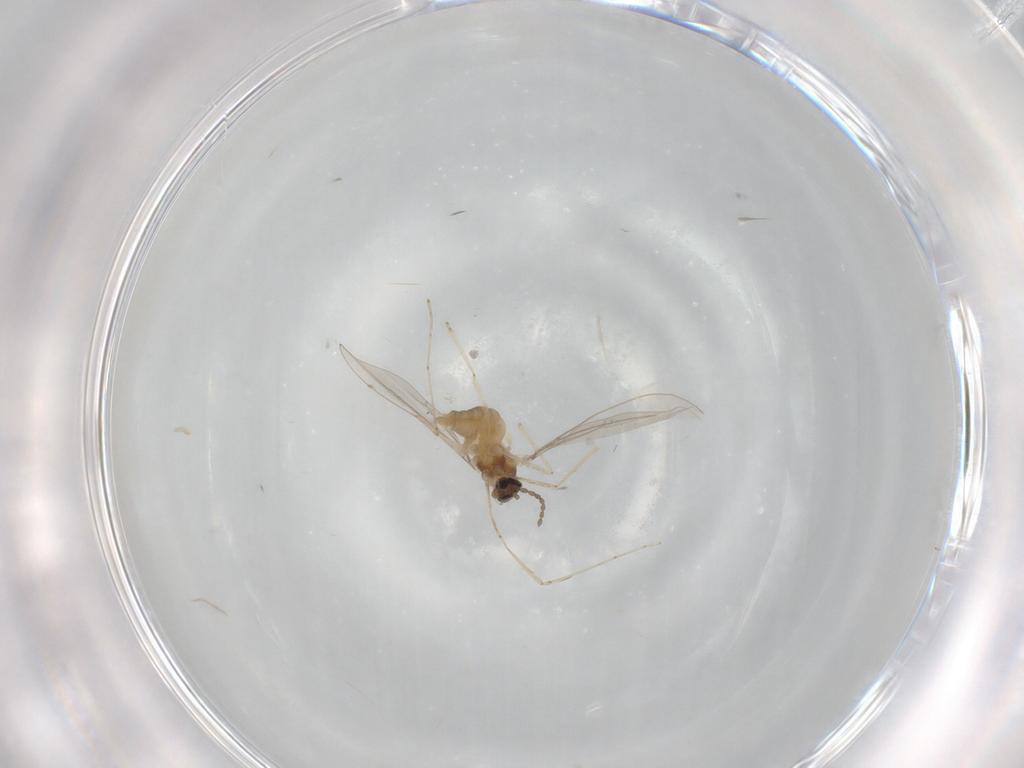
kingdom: Animalia
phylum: Arthropoda
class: Insecta
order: Diptera
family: Cecidomyiidae
